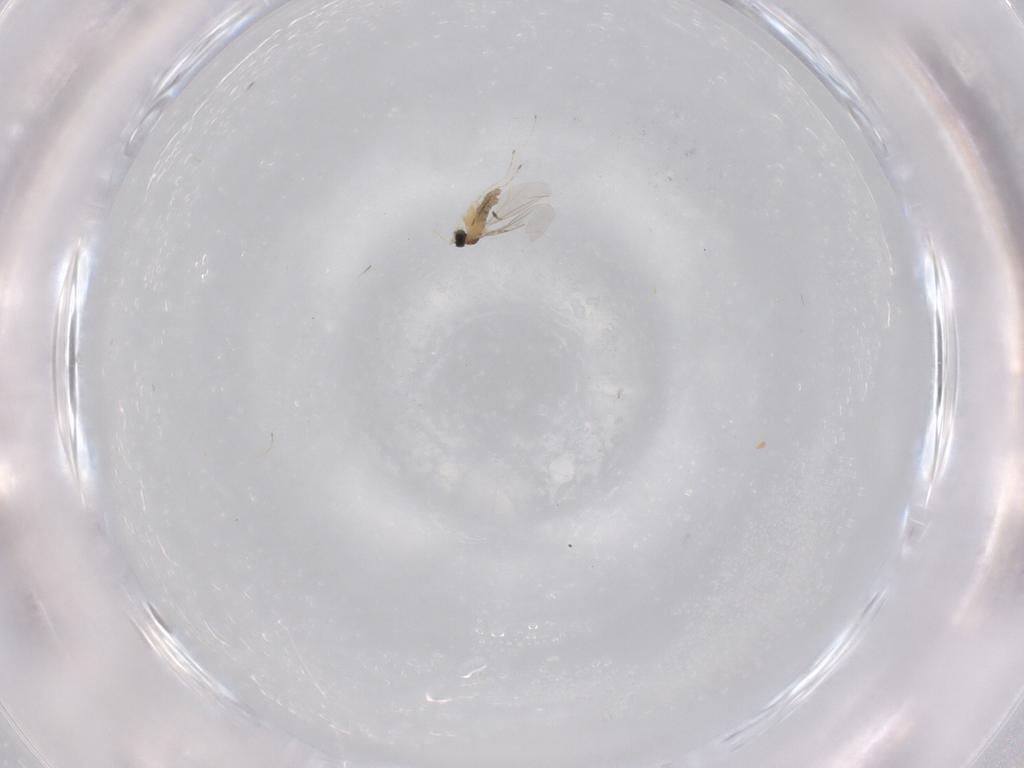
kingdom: Animalia
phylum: Arthropoda
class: Insecta
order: Diptera
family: Cecidomyiidae
